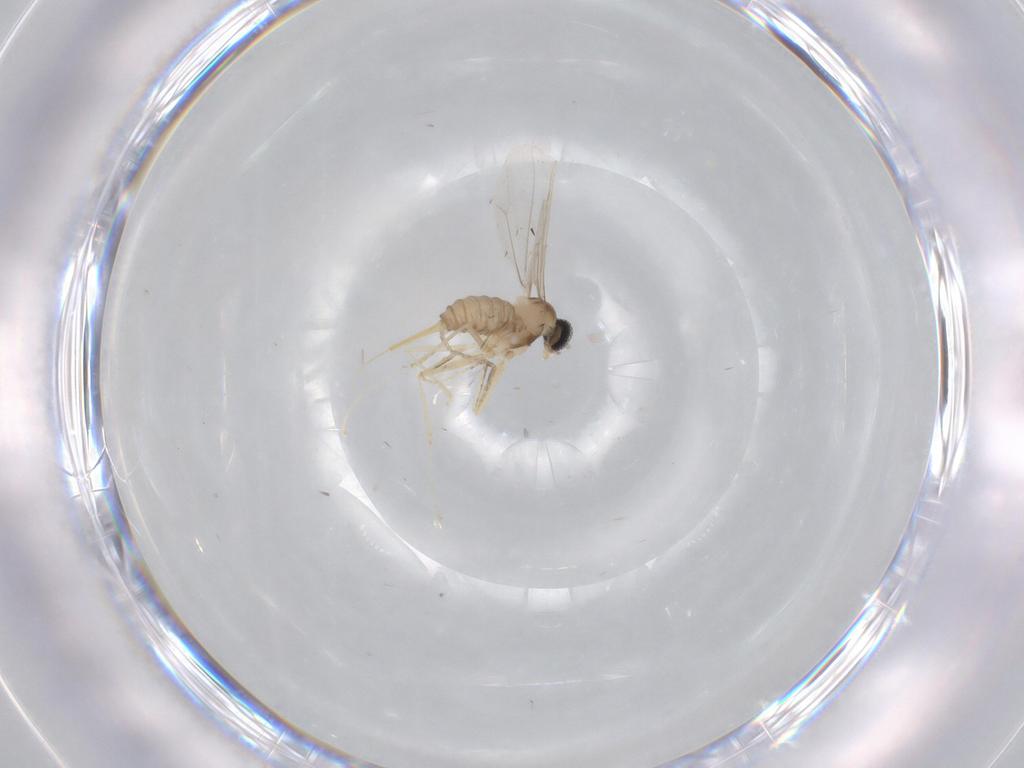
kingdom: Animalia
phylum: Arthropoda
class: Insecta
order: Diptera
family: Cecidomyiidae
